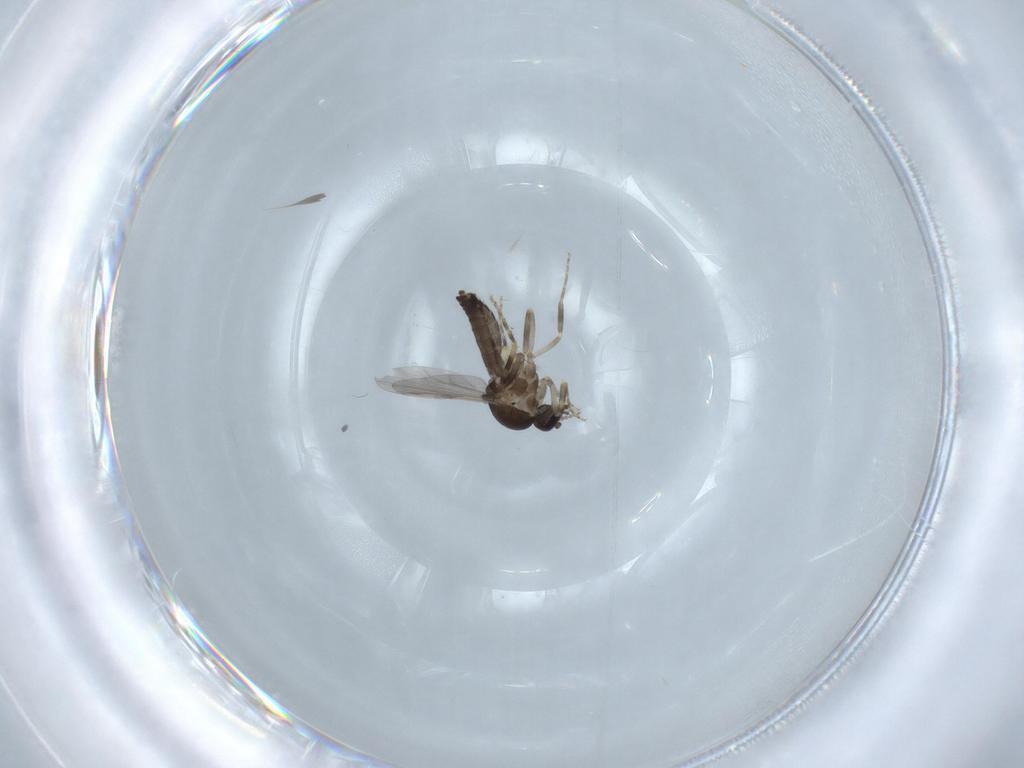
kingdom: Animalia
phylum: Arthropoda
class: Insecta
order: Diptera
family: Ceratopogonidae
